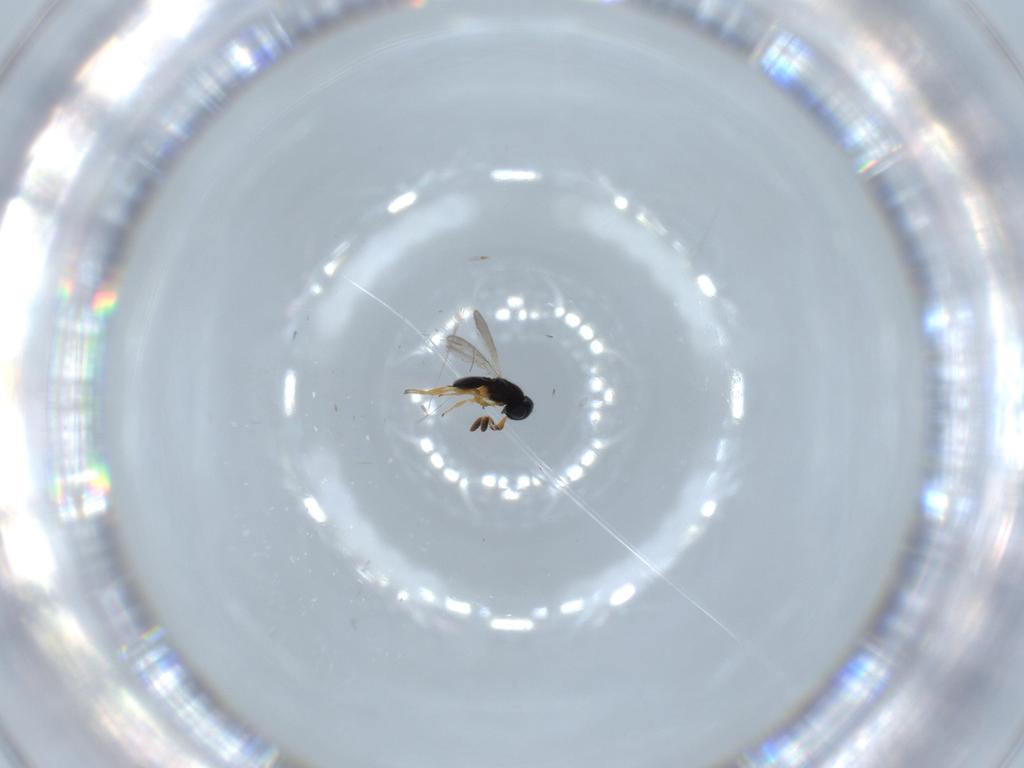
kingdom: Animalia
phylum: Arthropoda
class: Insecta
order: Hymenoptera
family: Scelionidae
